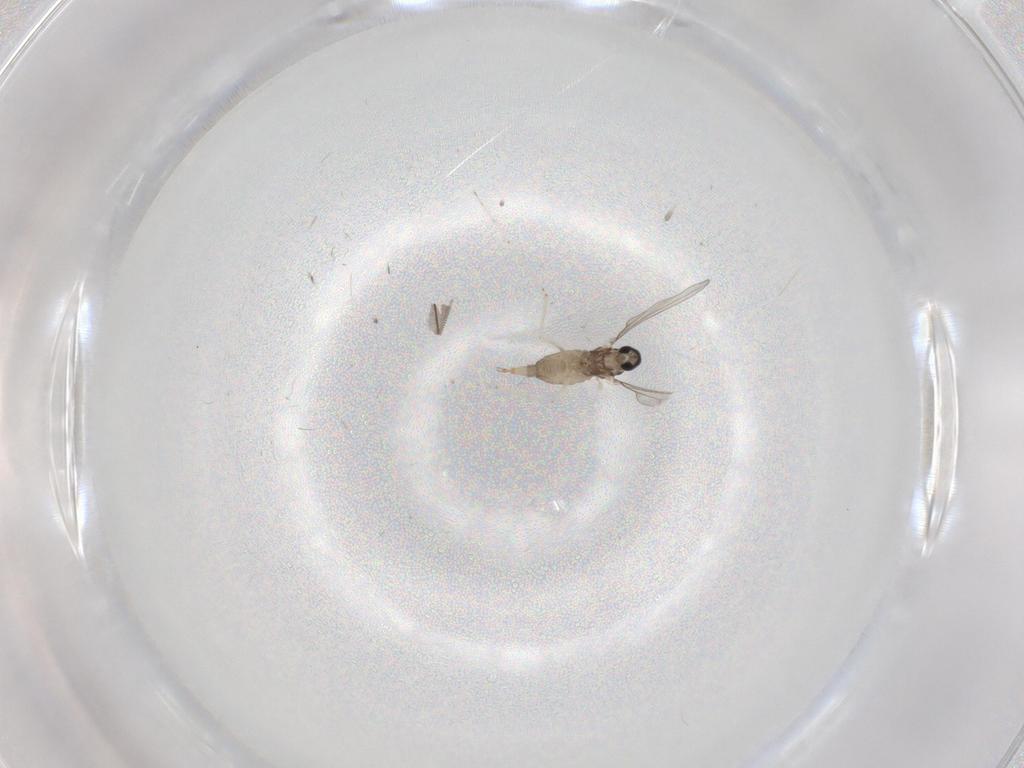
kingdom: Animalia
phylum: Arthropoda
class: Insecta
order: Diptera
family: Cecidomyiidae
